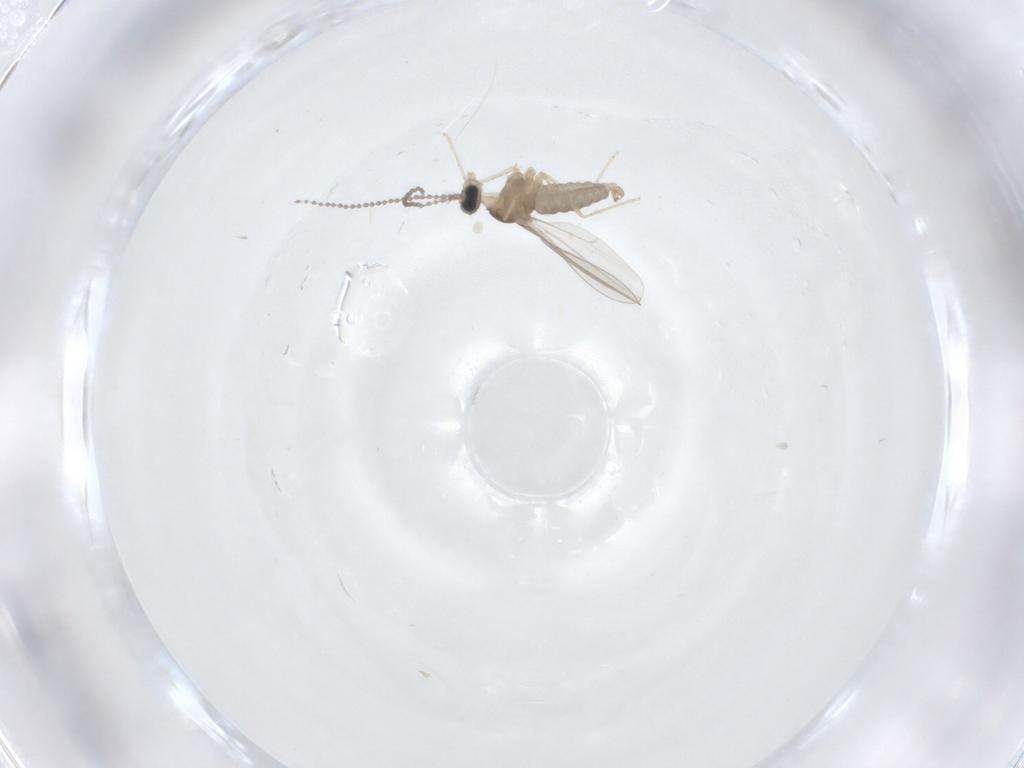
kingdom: Animalia
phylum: Arthropoda
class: Insecta
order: Diptera
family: Cecidomyiidae
